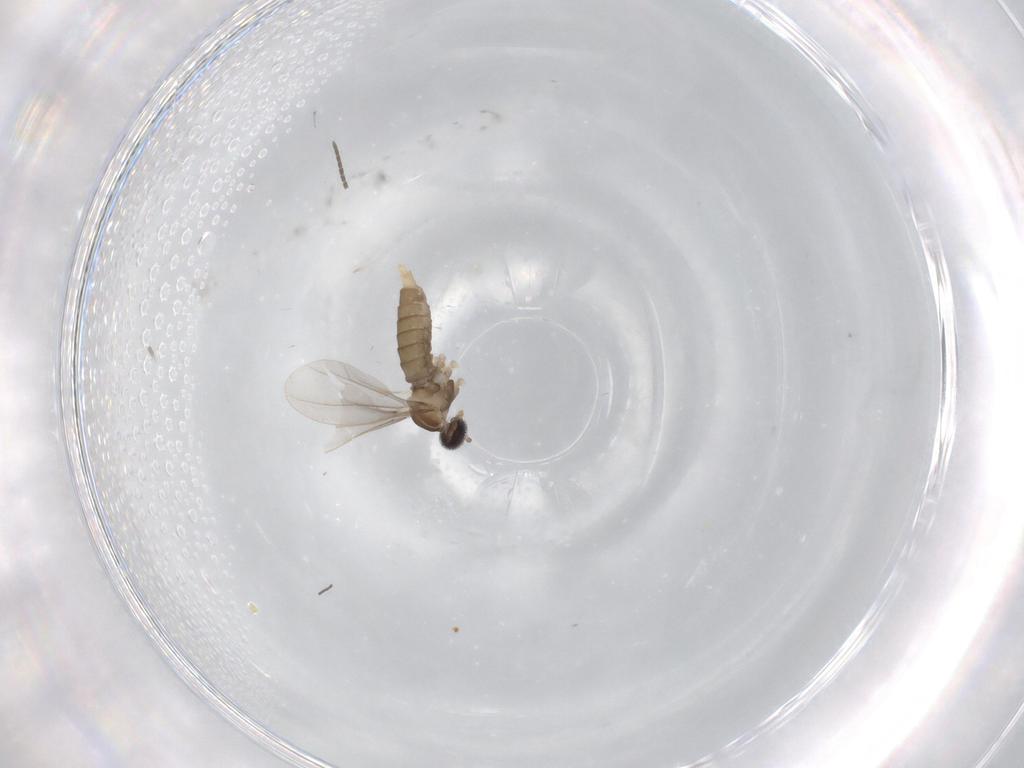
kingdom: Animalia
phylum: Arthropoda
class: Insecta
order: Diptera
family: Cecidomyiidae
